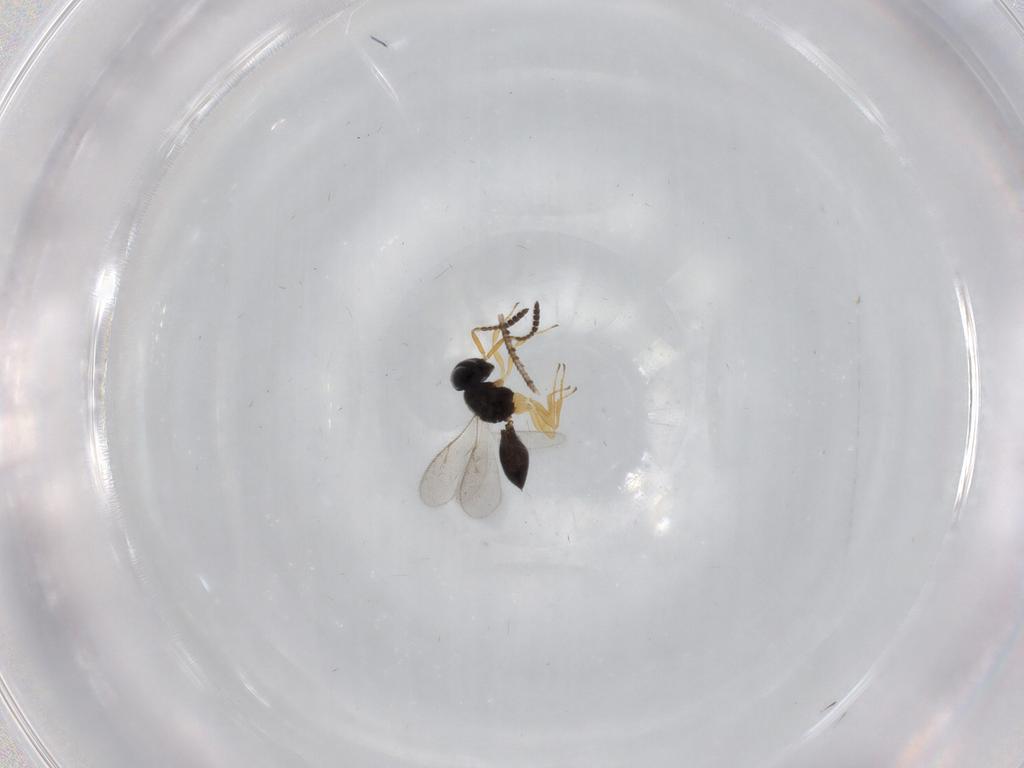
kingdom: Animalia
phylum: Arthropoda
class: Insecta
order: Hymenoptera
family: Scelionidae
